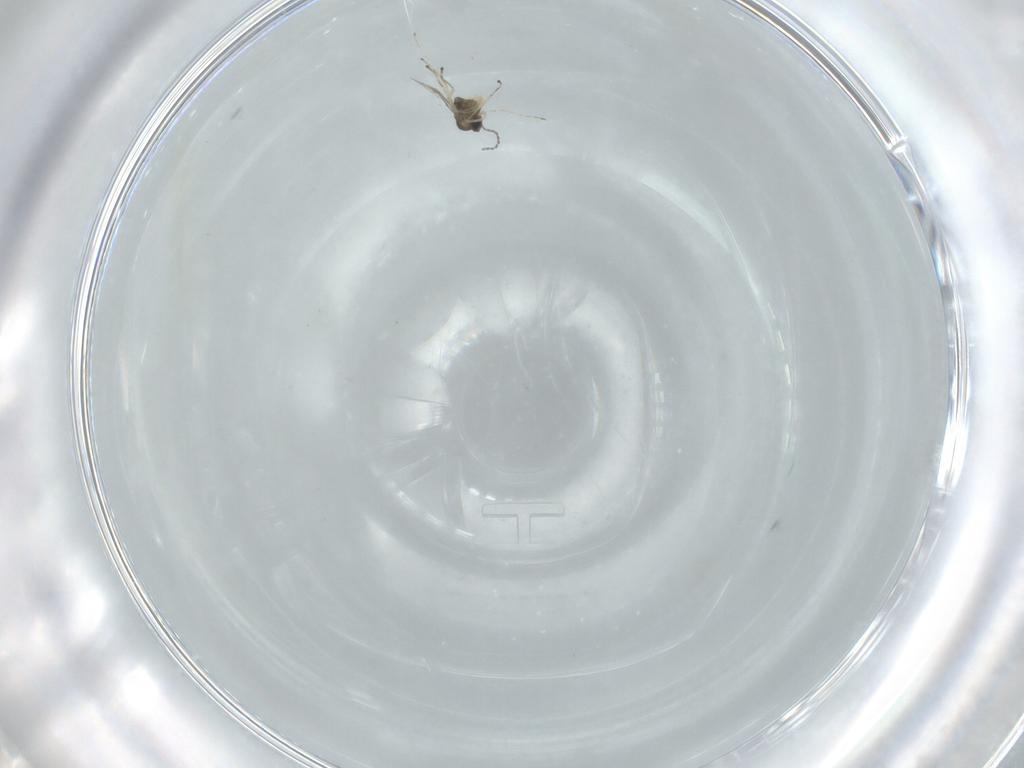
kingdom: Animalia
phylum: Arthropoda
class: Insecta
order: Diptera
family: Cecidomyiidae
